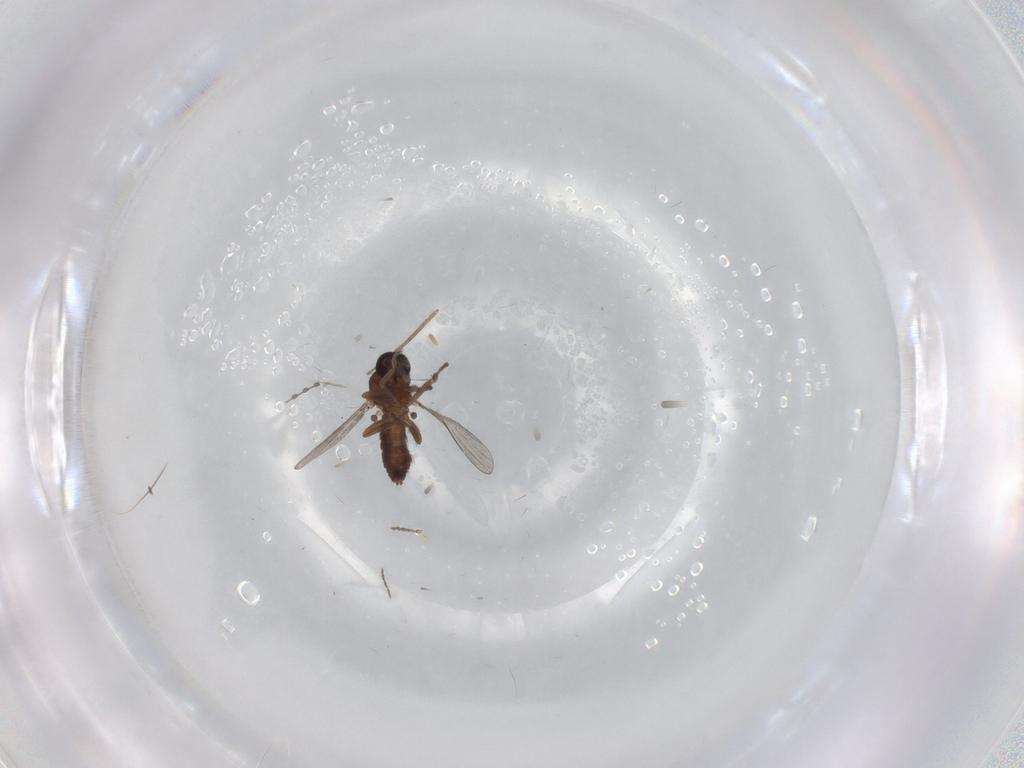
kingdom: Animalia
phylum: Arthropoda
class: Insecta
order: Diptera
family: Chironomidae
